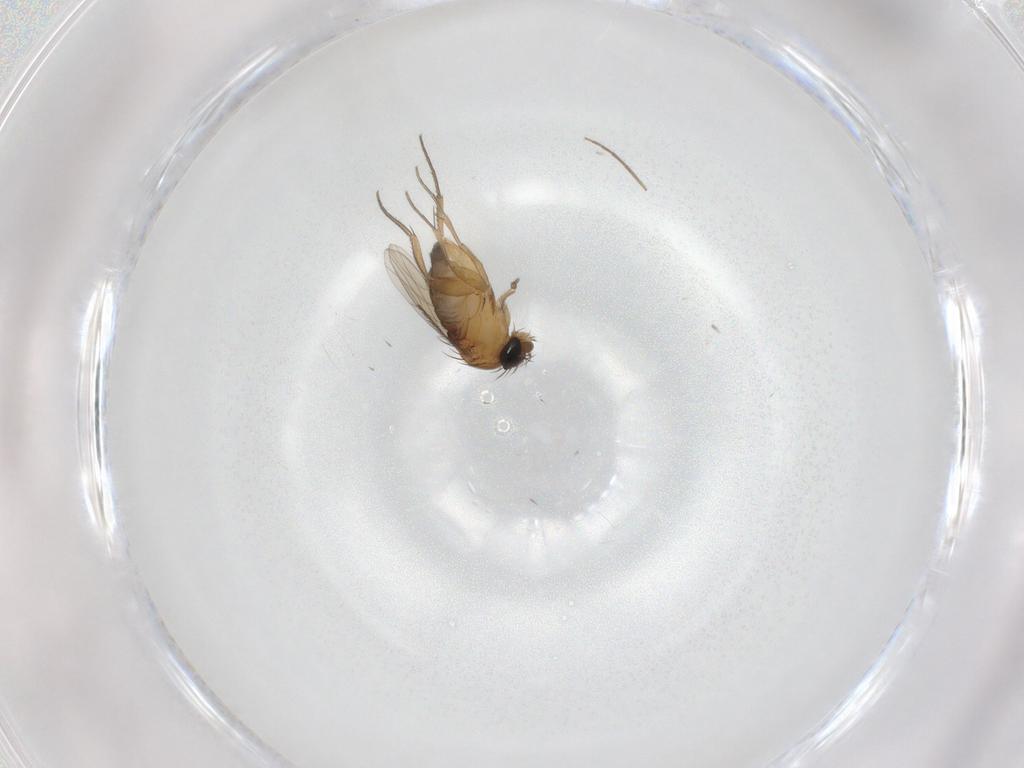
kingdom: Animalia
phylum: Arthropoda
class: Insecta
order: Diptera
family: Phoridae
